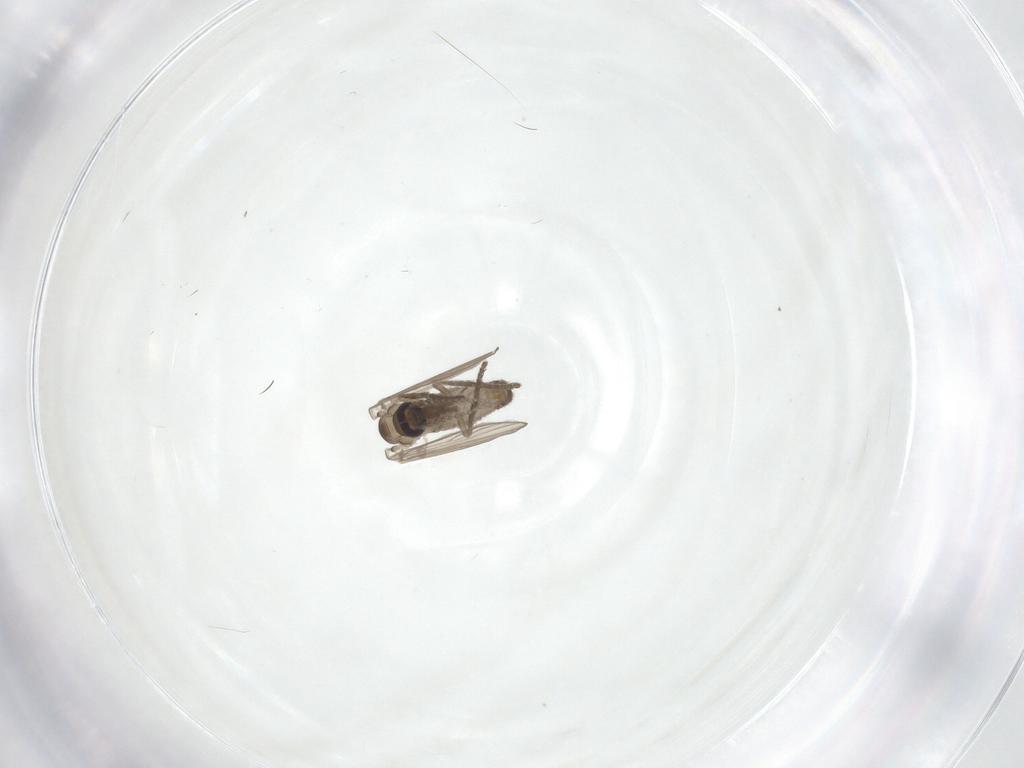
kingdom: Animalia
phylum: Arthropoda
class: Insecta
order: Diptera
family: Psychodidae
